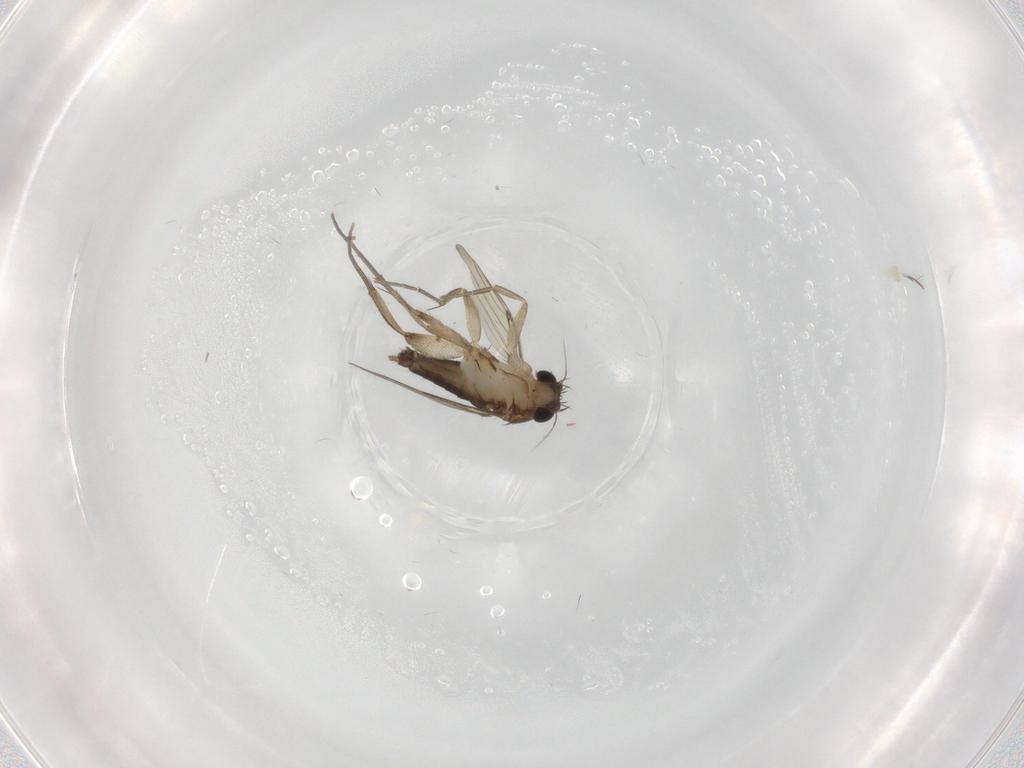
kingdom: Animalia
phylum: Arthropoda
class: Insecta
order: Diptera
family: Phoridae
